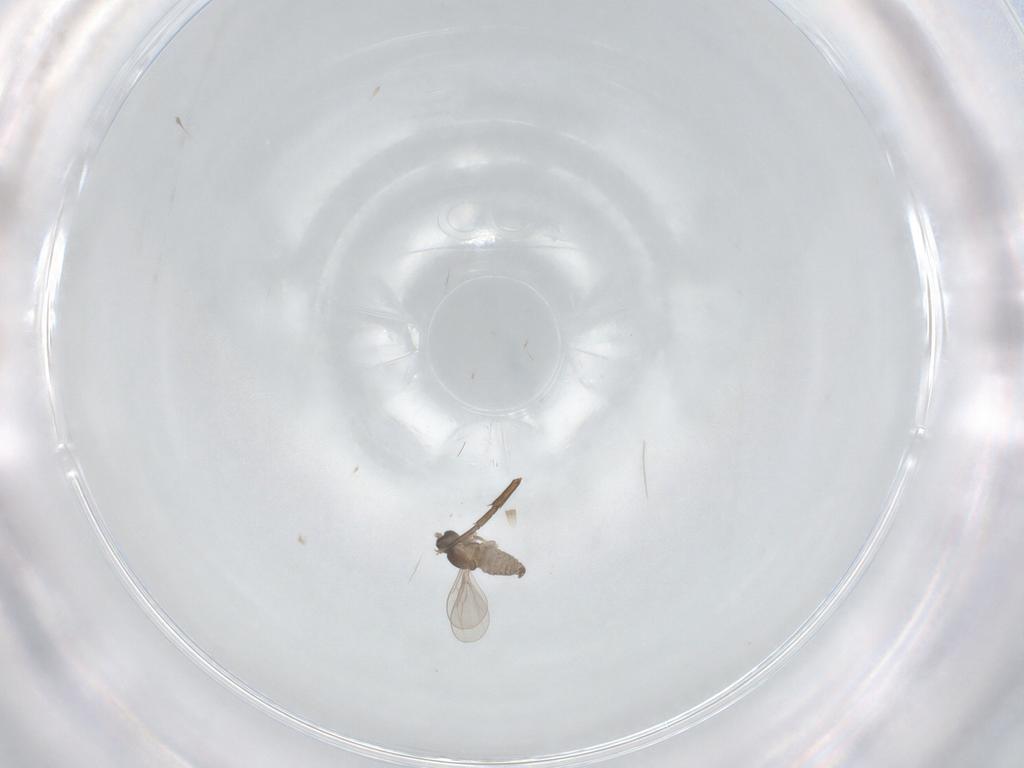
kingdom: Animalia
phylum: Arthropoda
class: Insecta
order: Diptera
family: Cecidomyiidae
